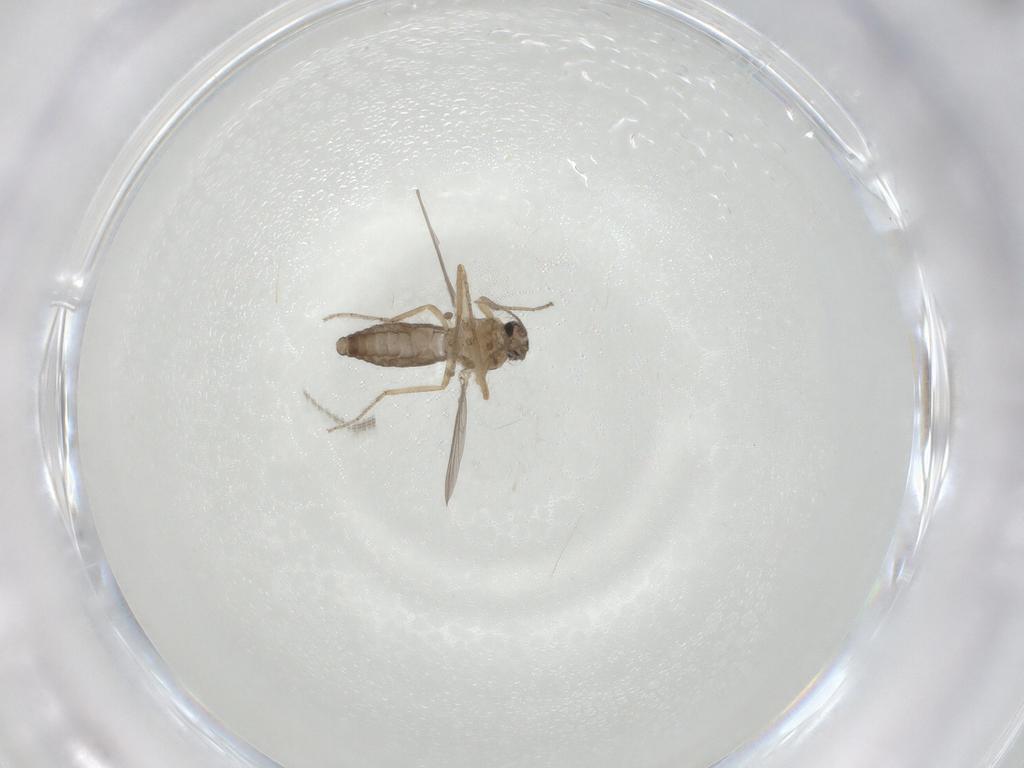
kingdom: Animalia
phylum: Arthropoda
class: Insecta
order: Diptera
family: Ceratopogonidae
